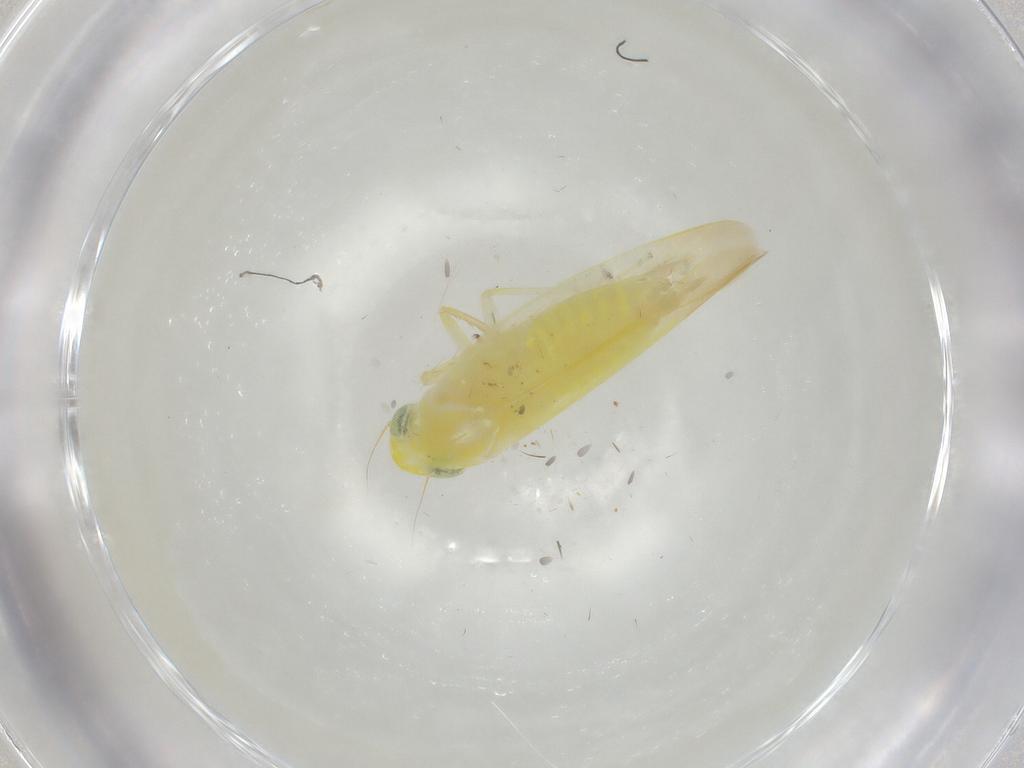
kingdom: Animalia
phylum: Arthropoda
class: Insecta
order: Hemiptera
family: Cicadellidae
